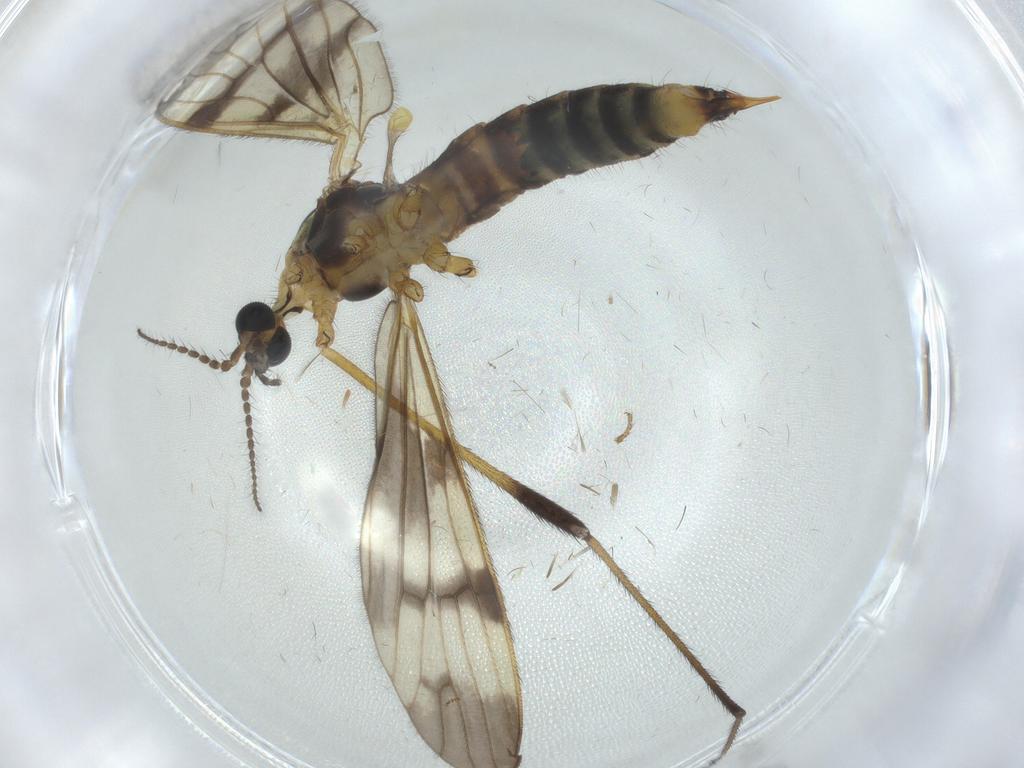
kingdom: Animalia
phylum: Arthropoda
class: Insecta
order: Diptera
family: Limoniidae
